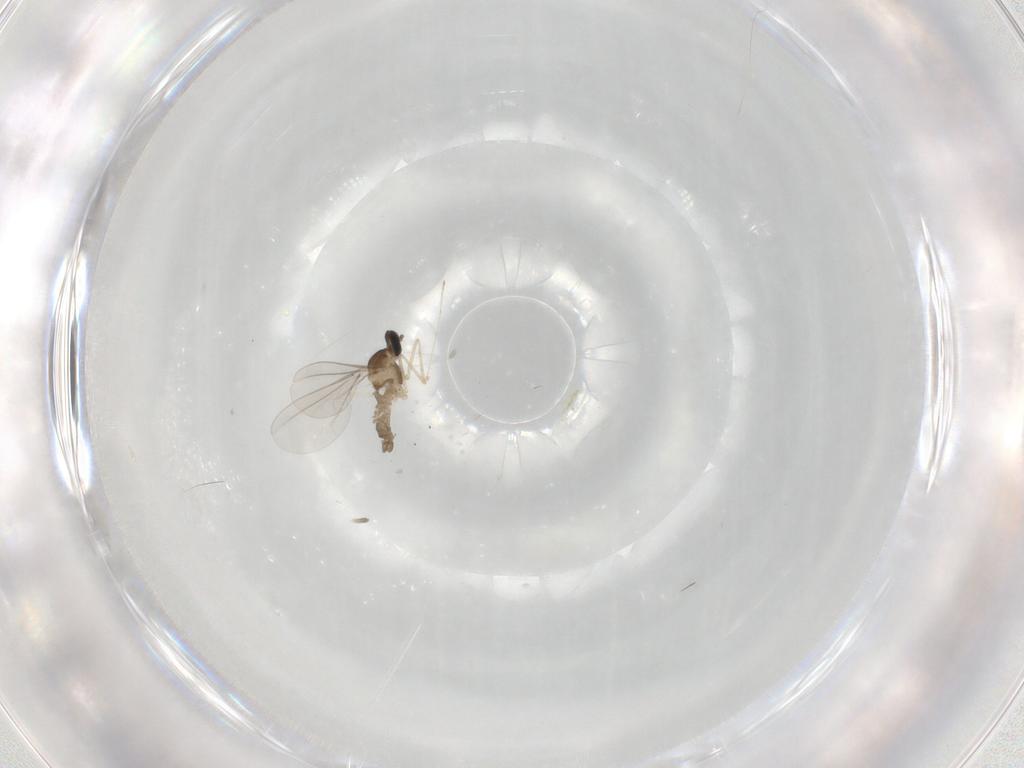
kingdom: Animalia
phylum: Arthropoda
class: Insecta
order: Diptera
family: Cecidomyiidae
